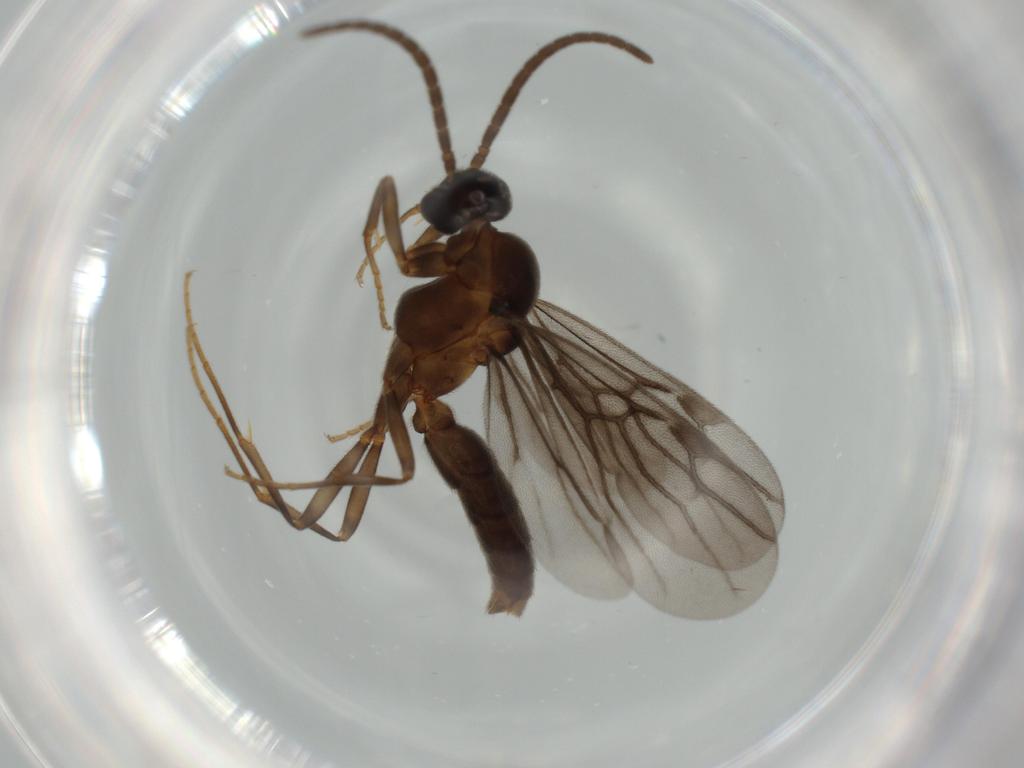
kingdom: Animalia
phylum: Arthropoda
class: Insecta
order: Hymenoptera
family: Formicidae
